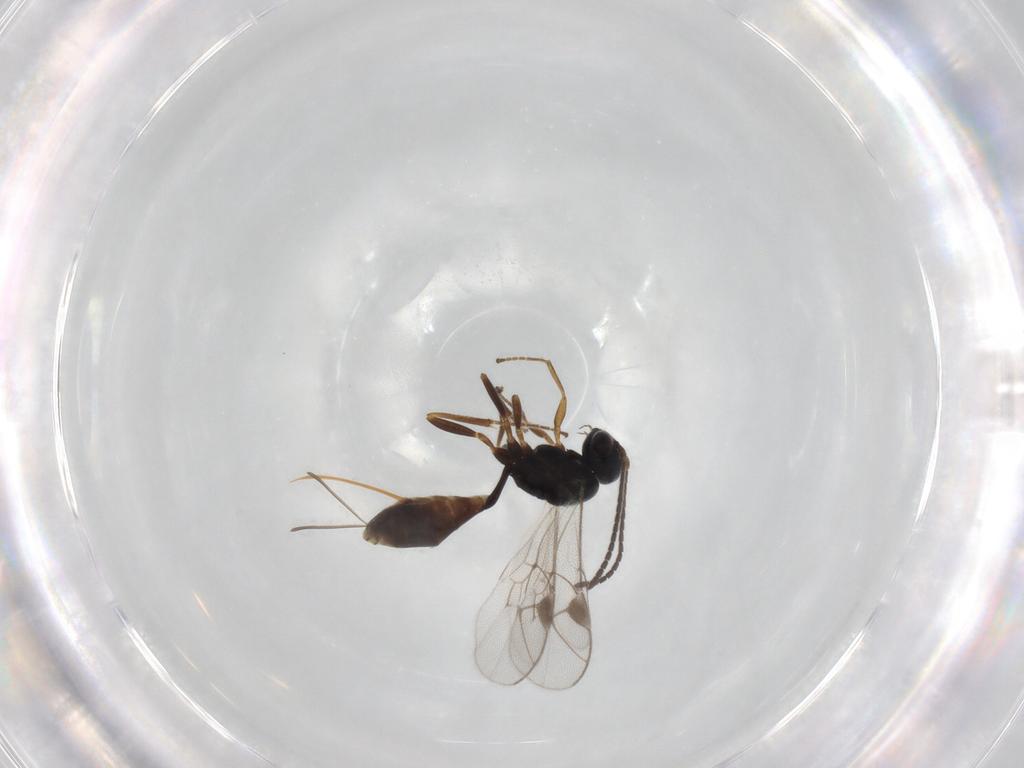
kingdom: Animalia
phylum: Arthropoda
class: Insecta
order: Hymenoptera
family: Ichneumonidae
